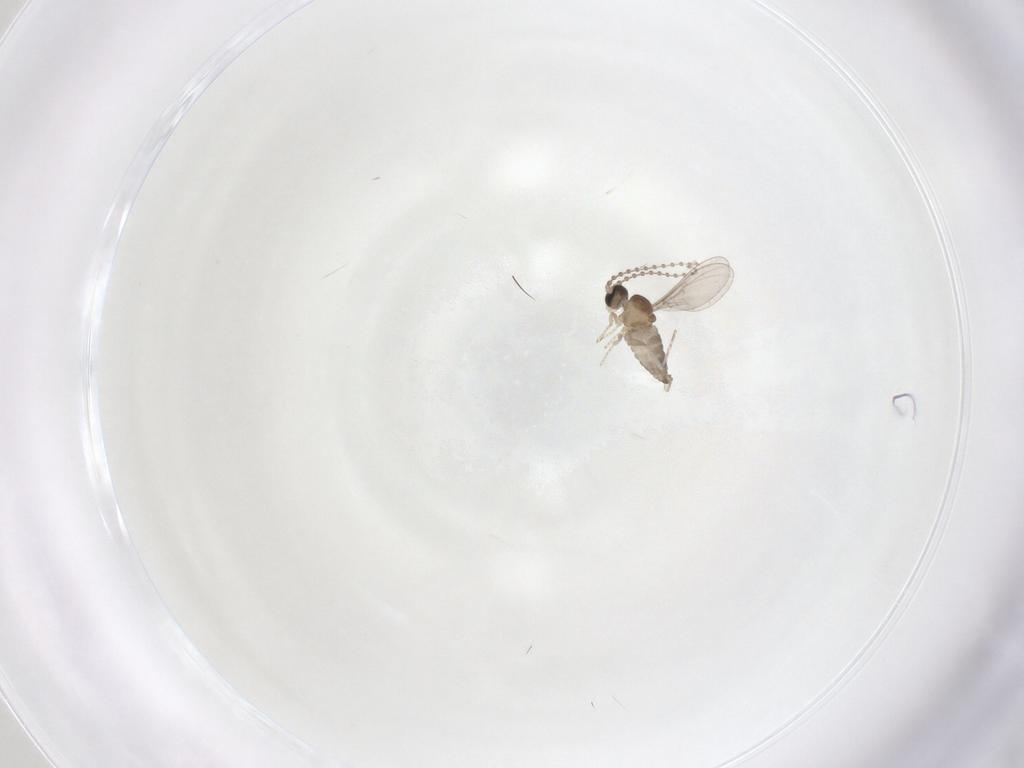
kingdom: Animalia
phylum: Arthropoda
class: Insecta
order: Diptera
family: Cecidomyiidae
